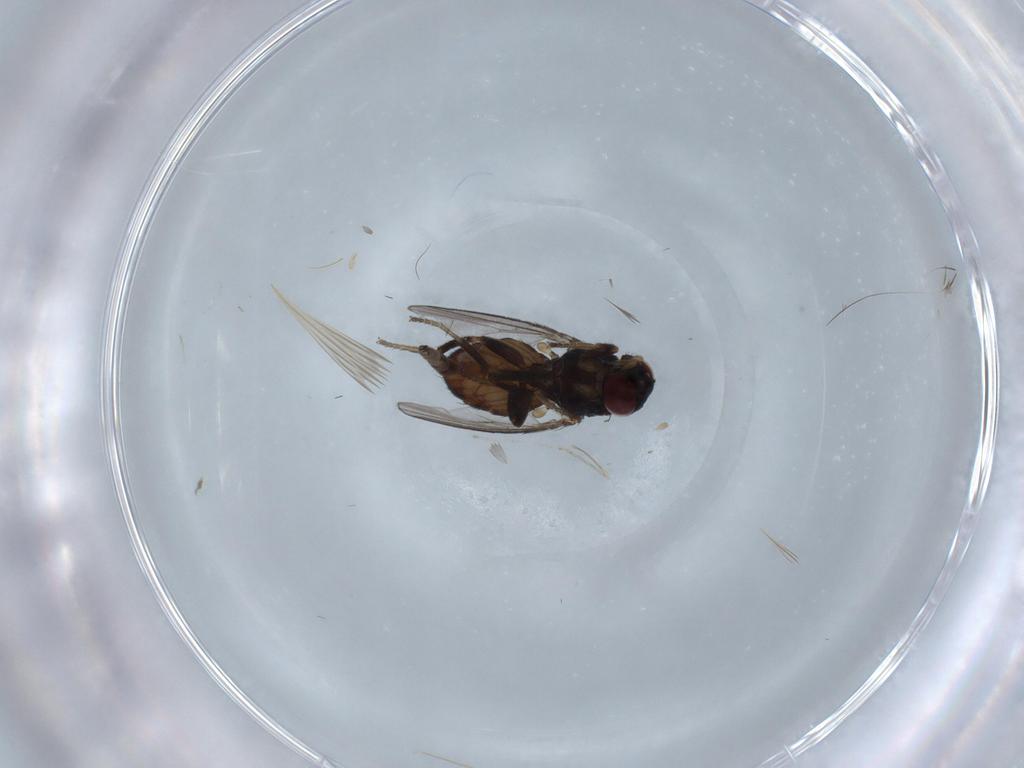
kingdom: Animalia
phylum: Arthropoda
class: Insecta
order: Diptera
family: Milichiidae
